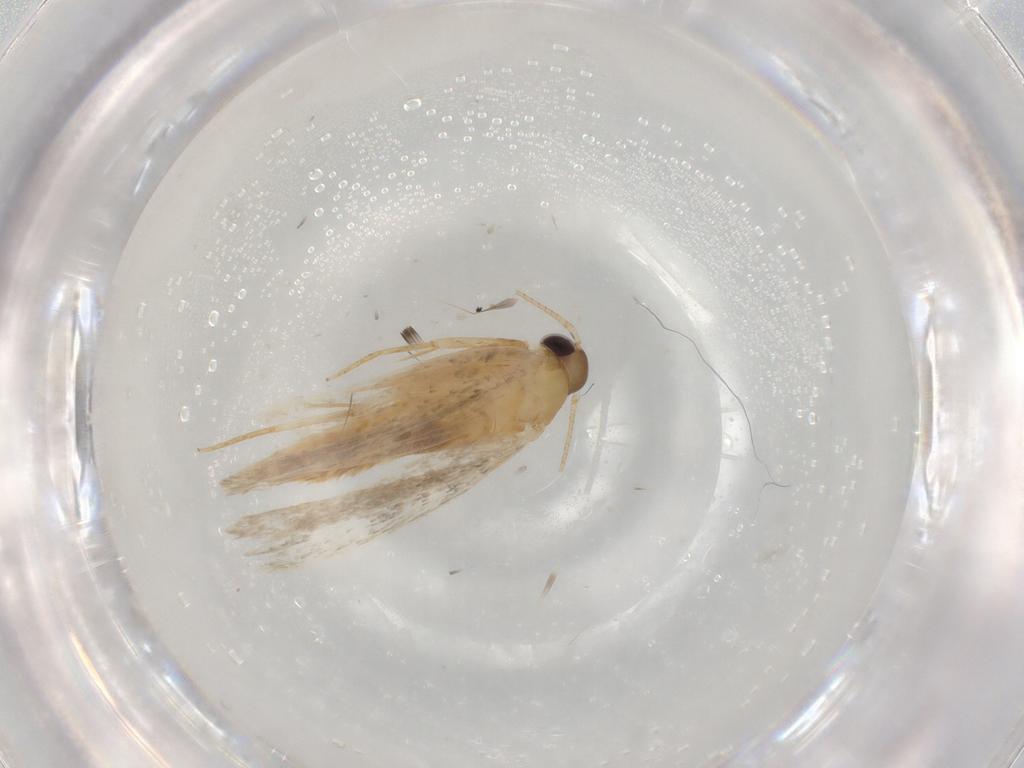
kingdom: Animalia
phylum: Arthropoda
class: Insecta
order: Lepidoptera
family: Autostichidae
